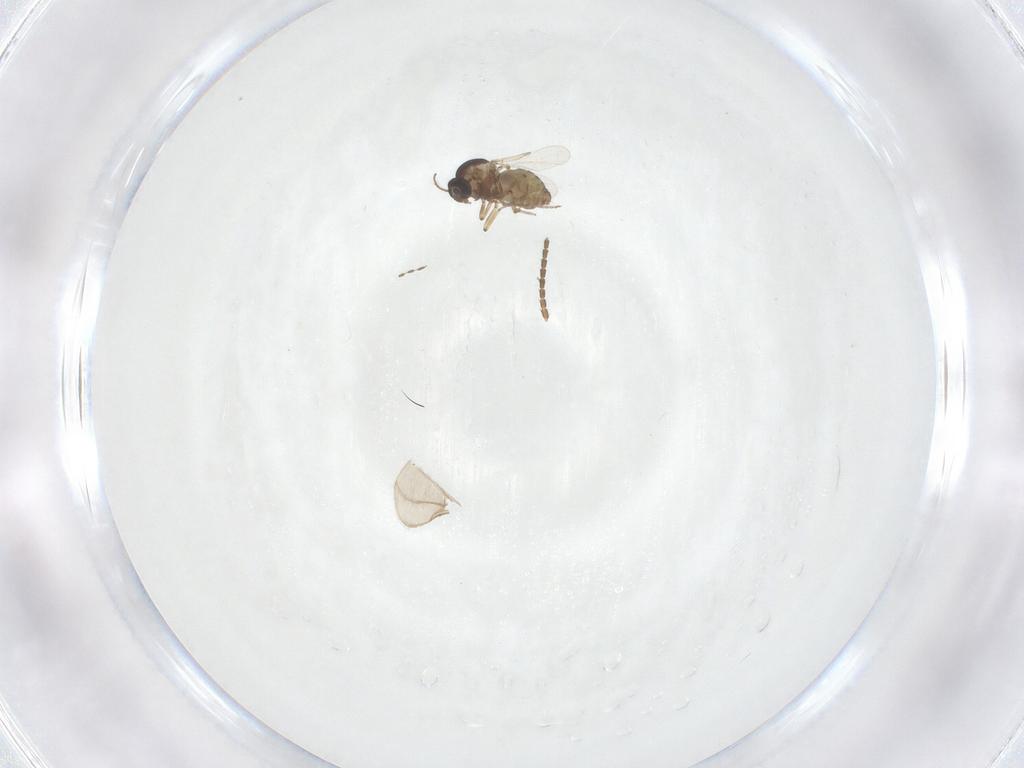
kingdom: Animalia
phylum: Arthropoda
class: Insecta
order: Diptera
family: Ceratopogonidae
